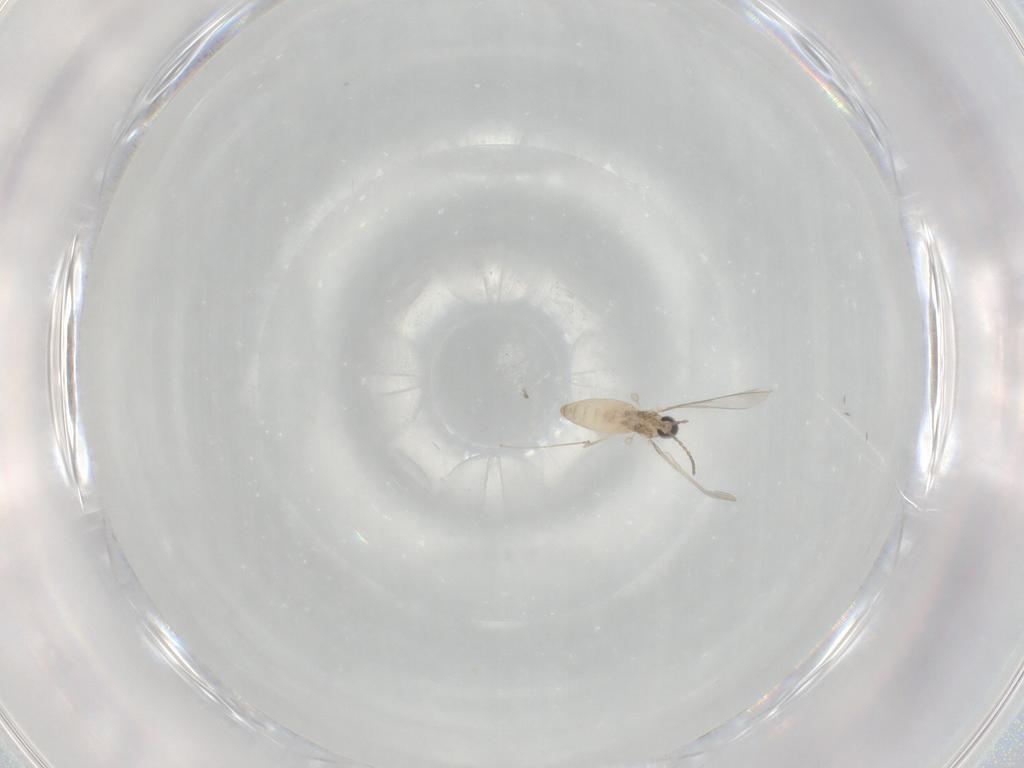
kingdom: Animalia
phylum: Arthropoda
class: Insecta
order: Diptera
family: Cecidomyiidae
